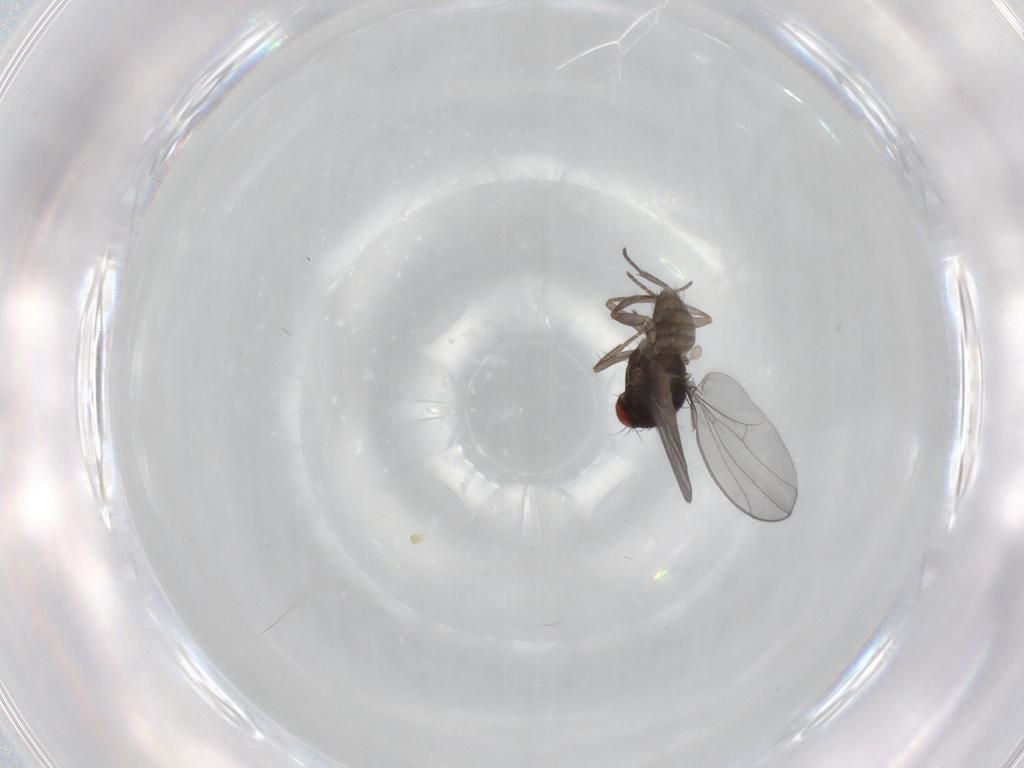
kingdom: Animalia
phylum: Arthropoda
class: Insecta
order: Diptera
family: Drosophilidae
